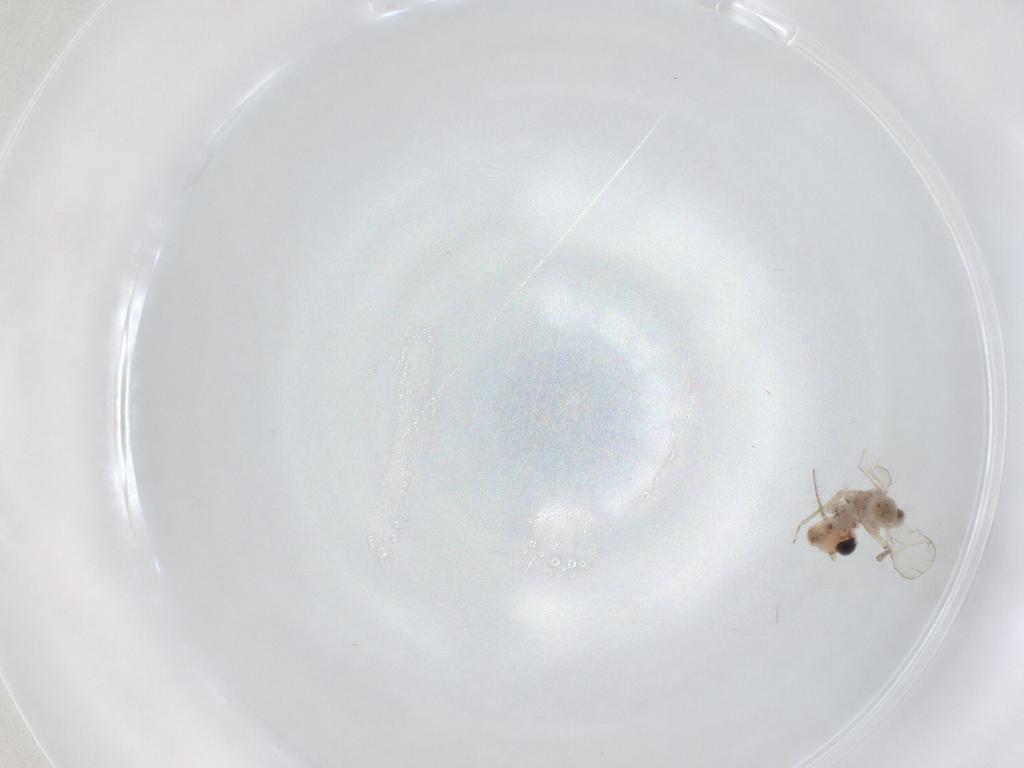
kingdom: Animalia
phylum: Arthropoda
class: Insecta
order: Psocodea
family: Caeciliusidae
